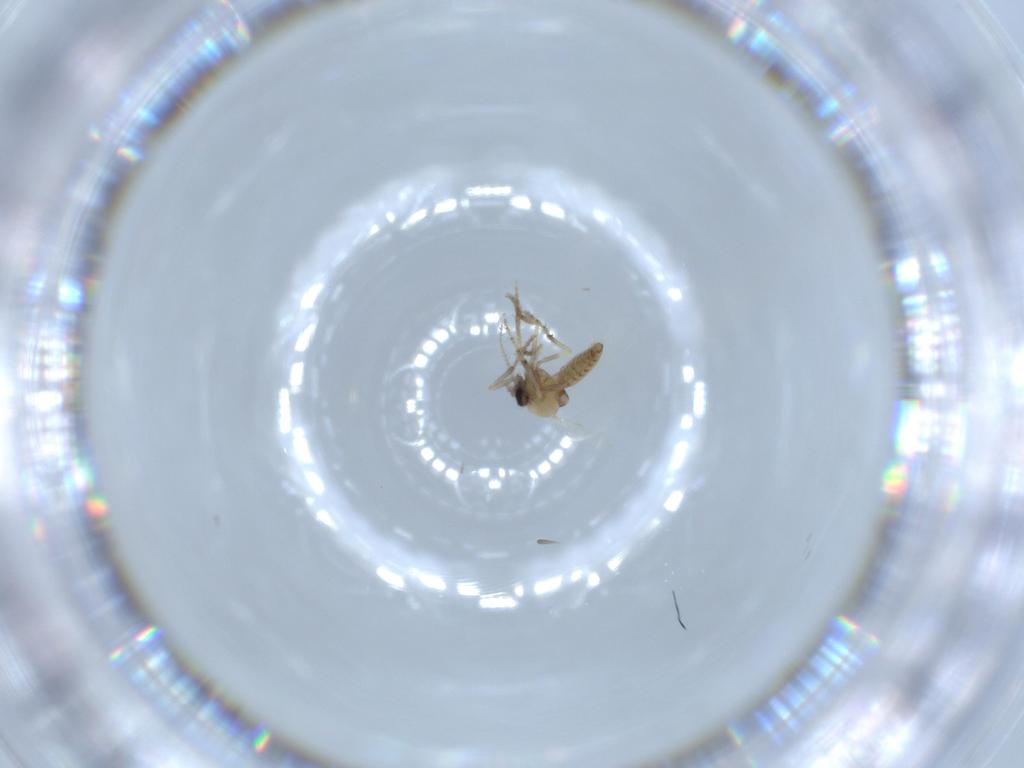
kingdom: Animalia
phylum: Arthropoda
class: Insecta
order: Diptera
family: Ceratopogonidae
